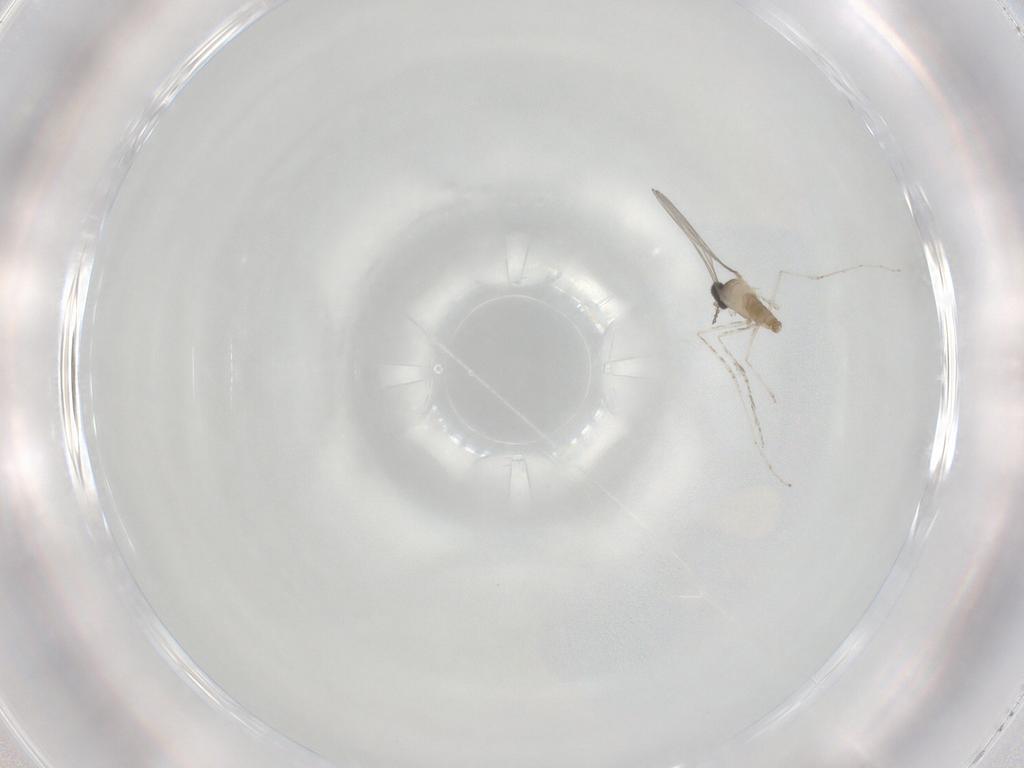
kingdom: Animalia
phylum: Arthropoda
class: Insecta
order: Diptera
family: Cecidomyiidae
